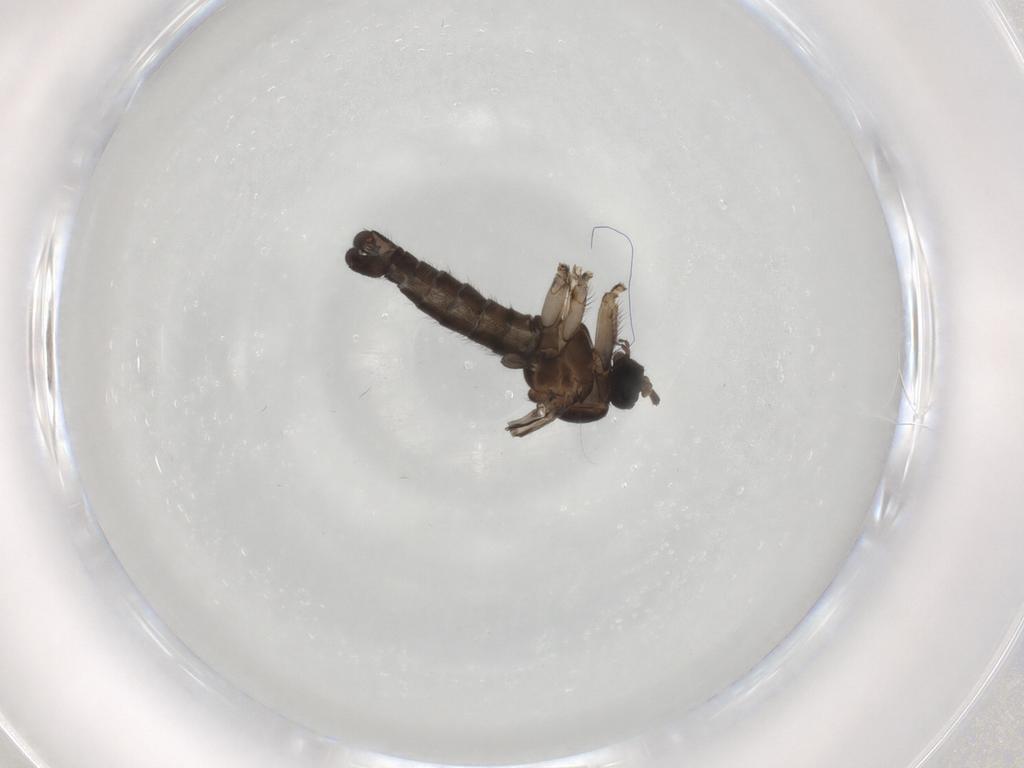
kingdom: Animalia
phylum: Arthropoda
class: Insecta
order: Diptera
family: Sciaridae
